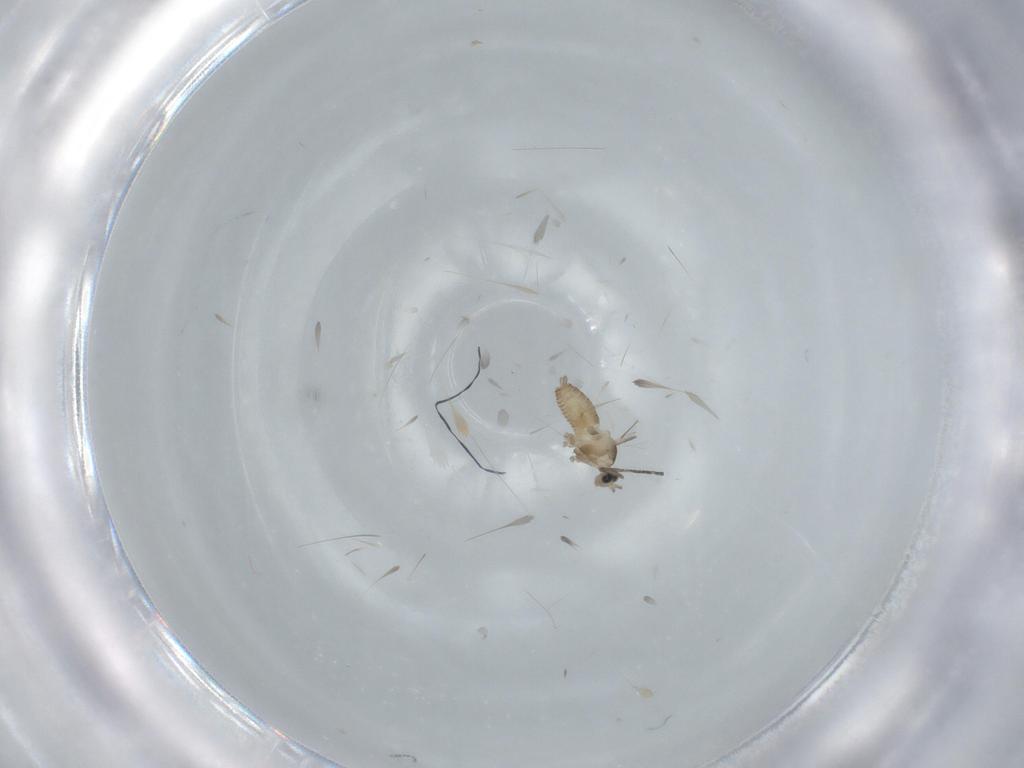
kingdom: Animalia
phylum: Arthropoda
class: Insecta
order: Diptera
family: Cecidomyiidae
